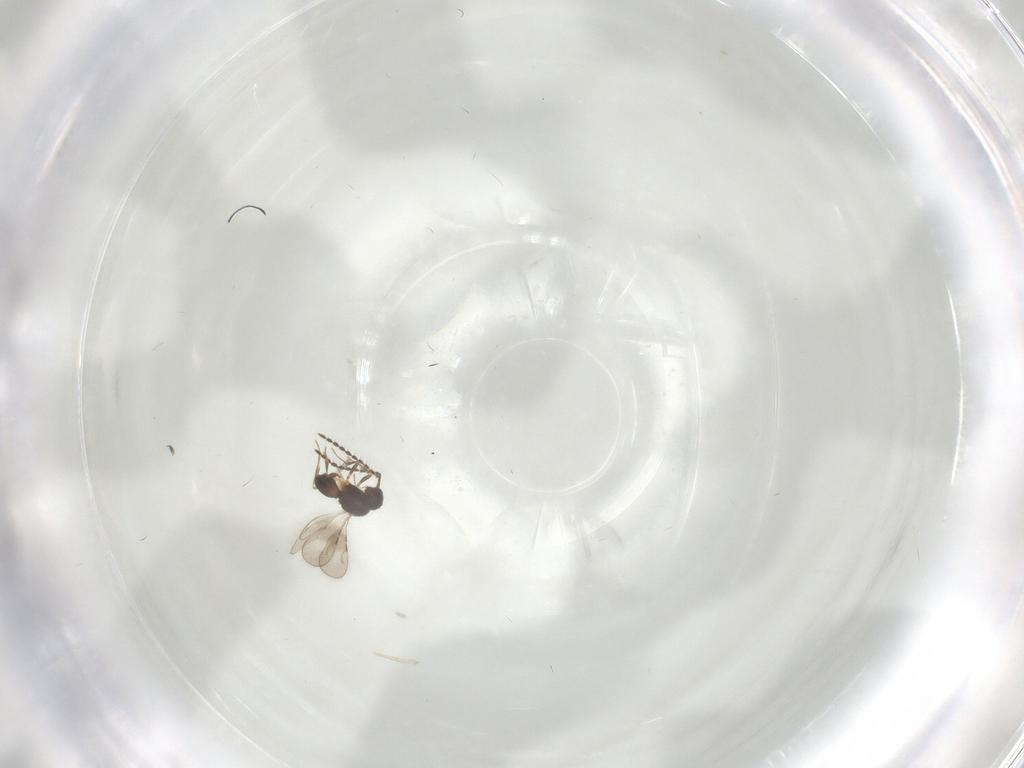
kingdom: Animalia
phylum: Arthropoda
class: Insecta
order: Hymenoptera
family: Ceraphronidae
